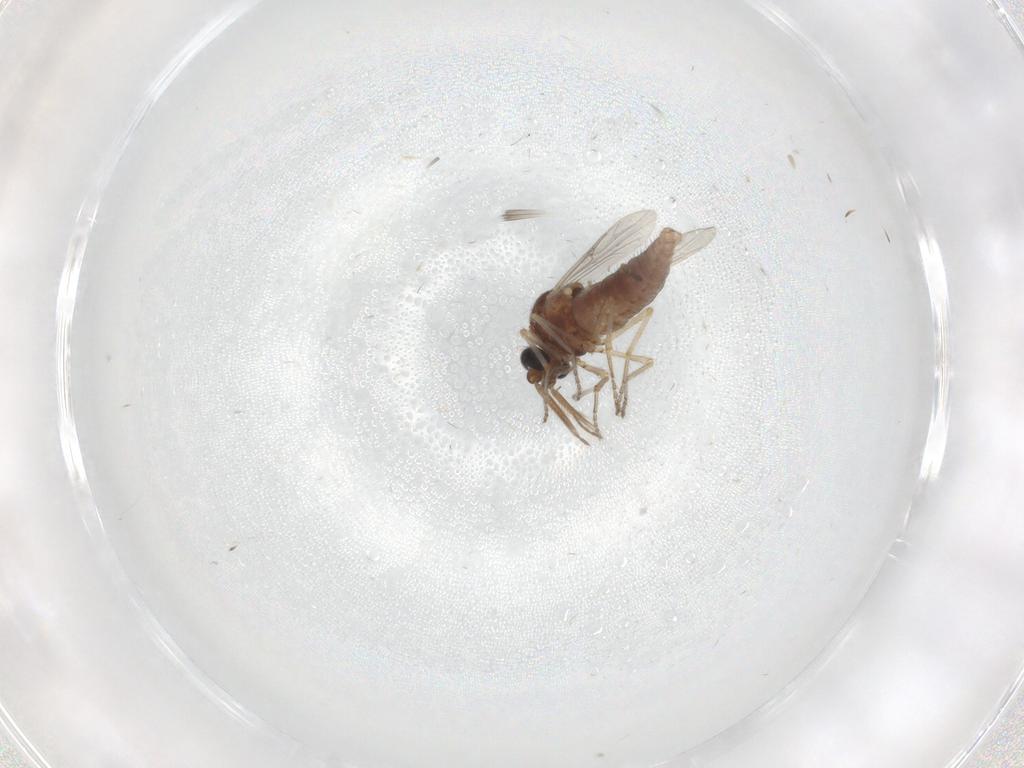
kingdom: Animalia
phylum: Arthropoda
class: Insecta
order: Diptera
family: Ceratopogonidae
